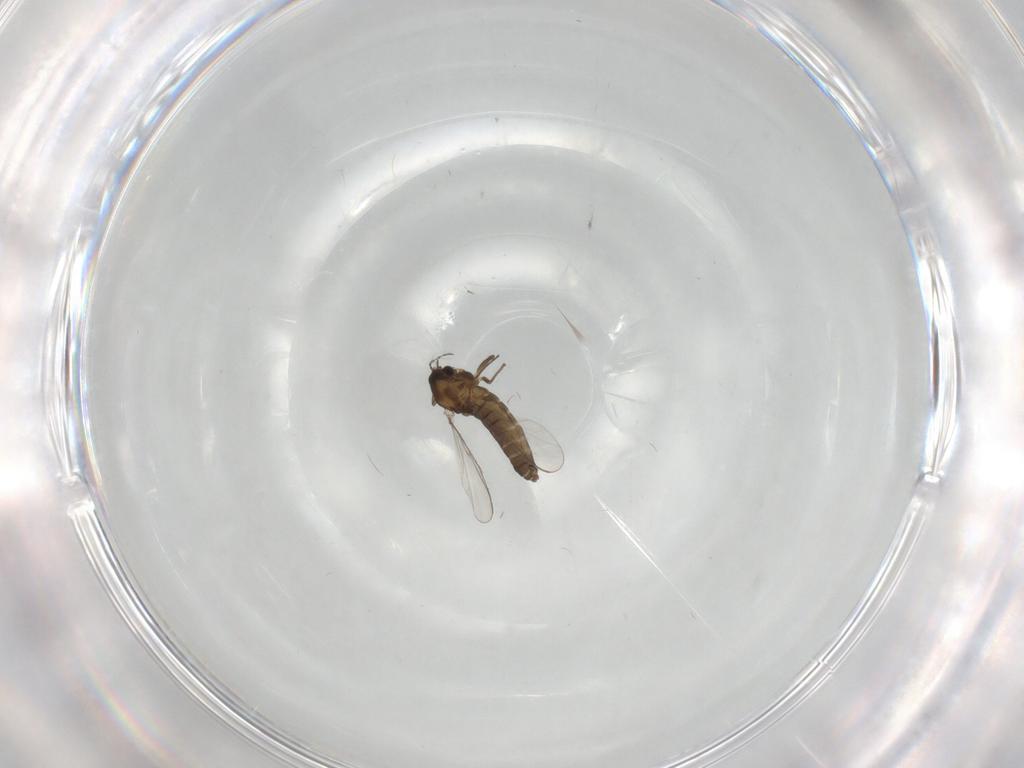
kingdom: Animalia
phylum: Arthropoda
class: Insecta
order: Diptera
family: Chironomidae
